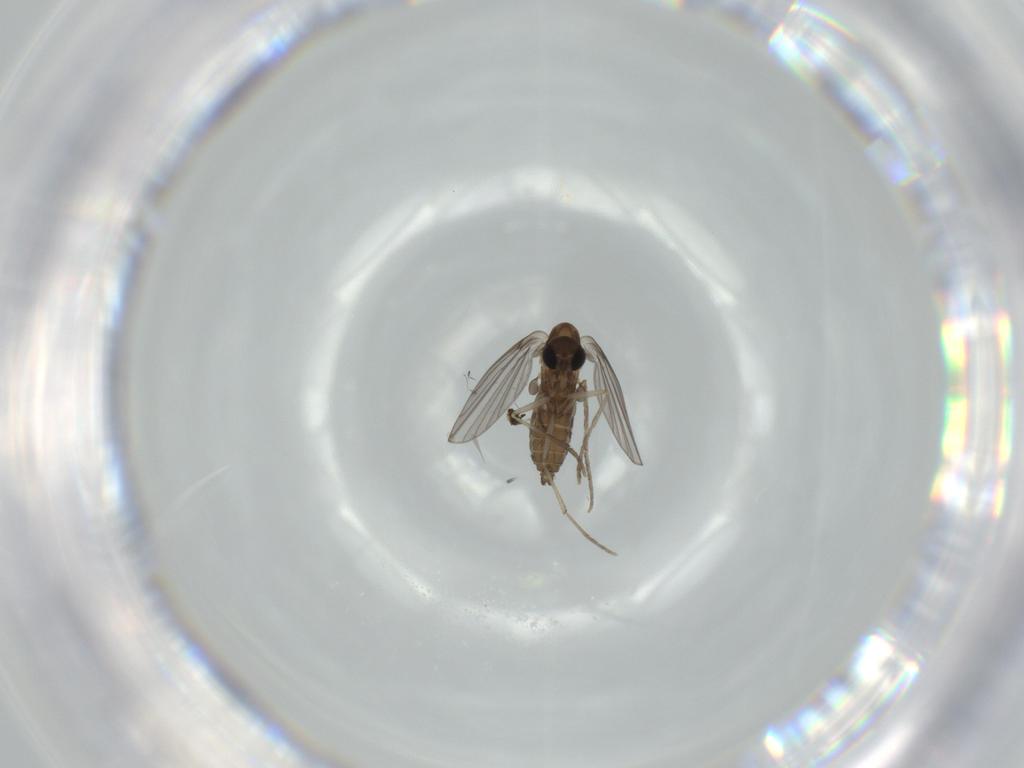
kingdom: Animalia
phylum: Arthropoda
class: Insecta
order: Diptera
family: Psychodidae
